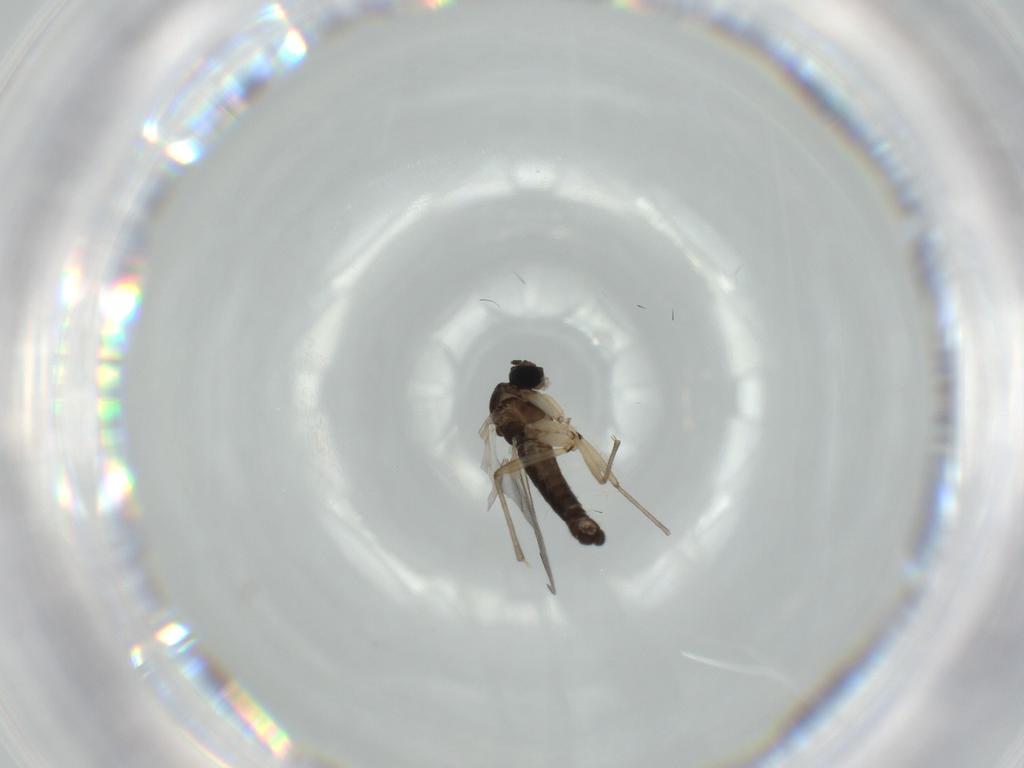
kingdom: Animalia
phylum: Arthropoda
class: Insecta
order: Diptera
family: Sciaridae
